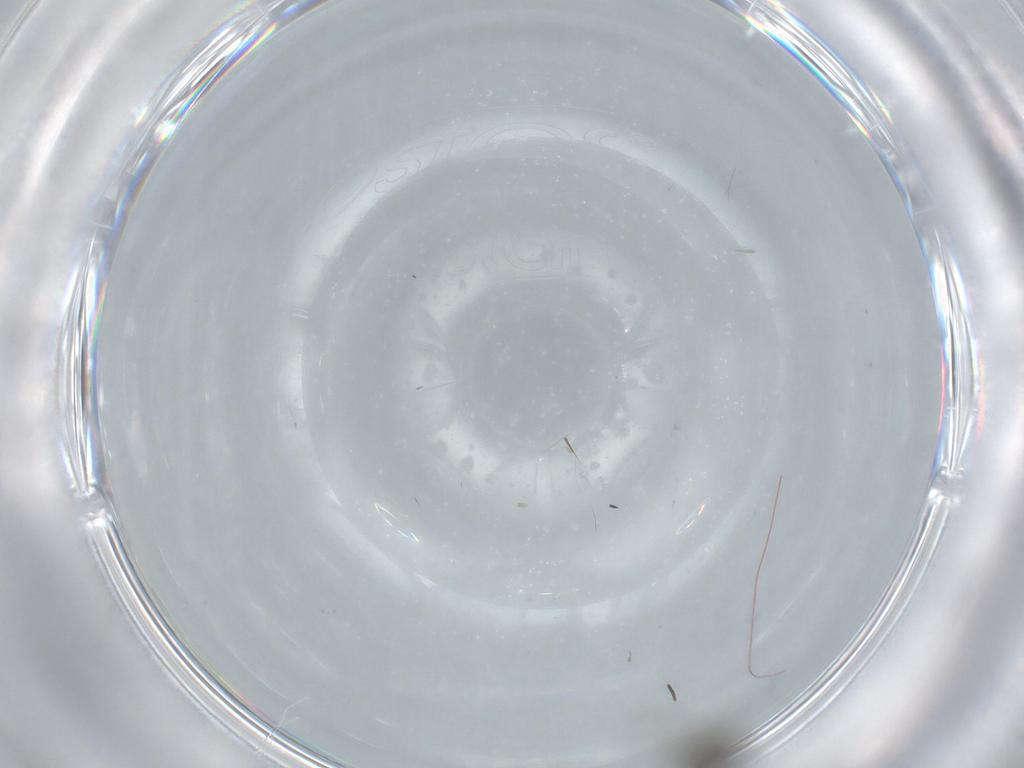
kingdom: Animalia
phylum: Arthropoda
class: Insecta
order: Diptera
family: Sciaridae
